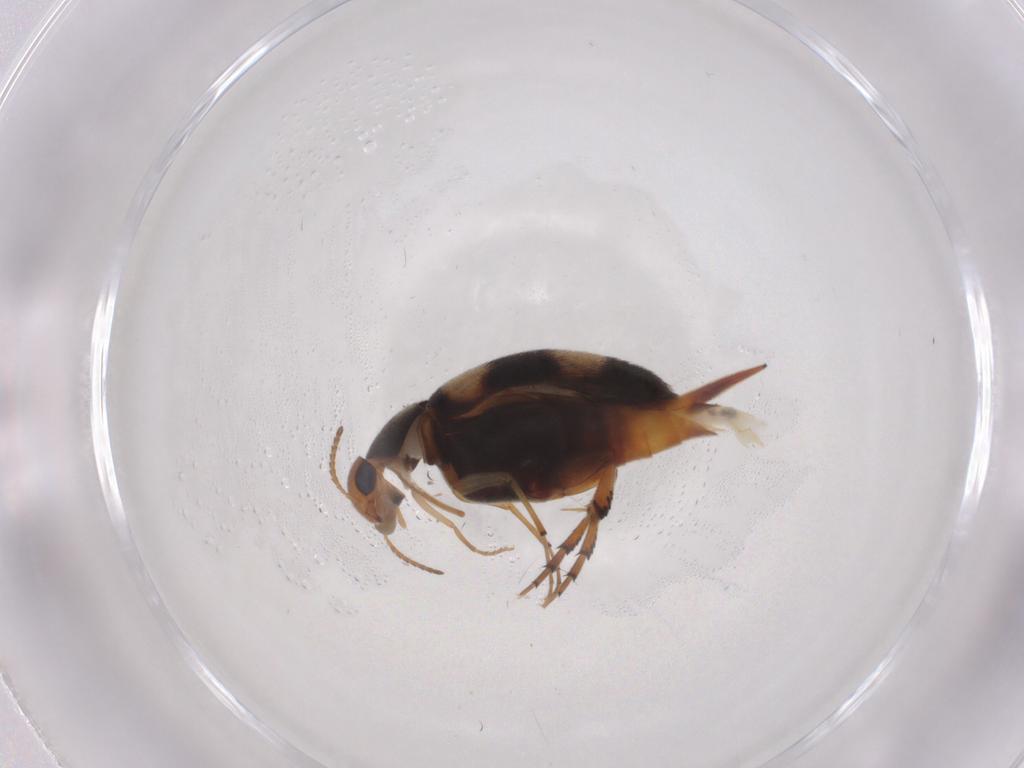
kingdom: Animalia
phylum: Arthropoda
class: Insecta
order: Coleoptera
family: Mordellidae
